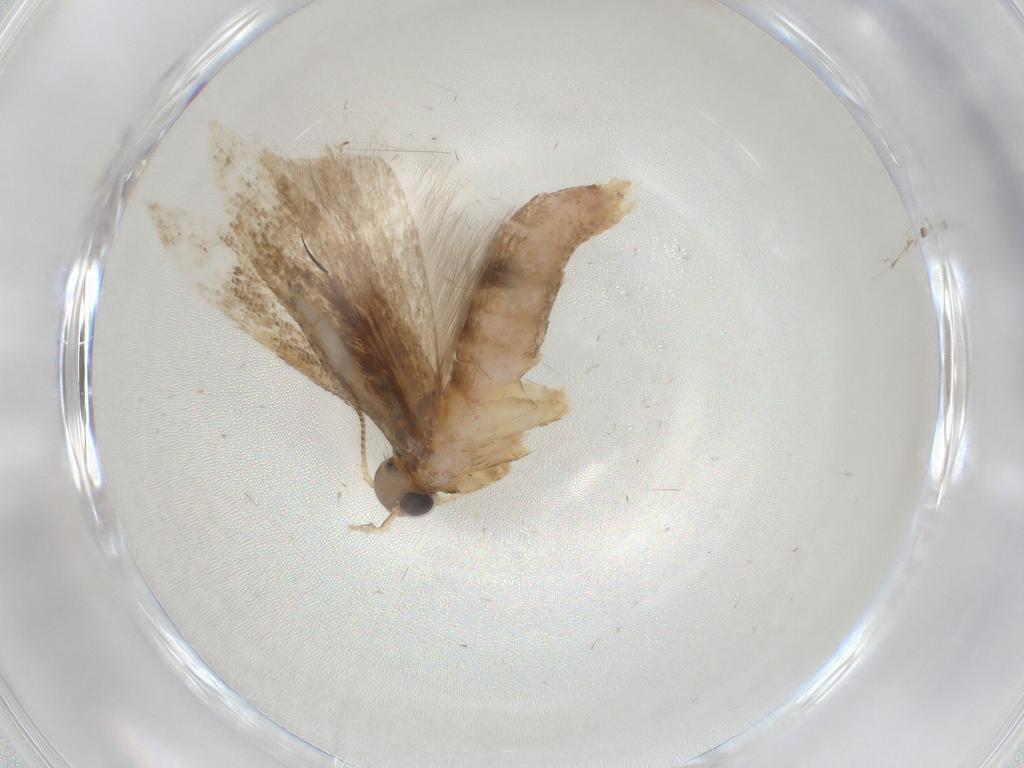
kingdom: Animalia
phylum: Arthropoda
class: Insecta
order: Lepidoptera
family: Gelechiidae
